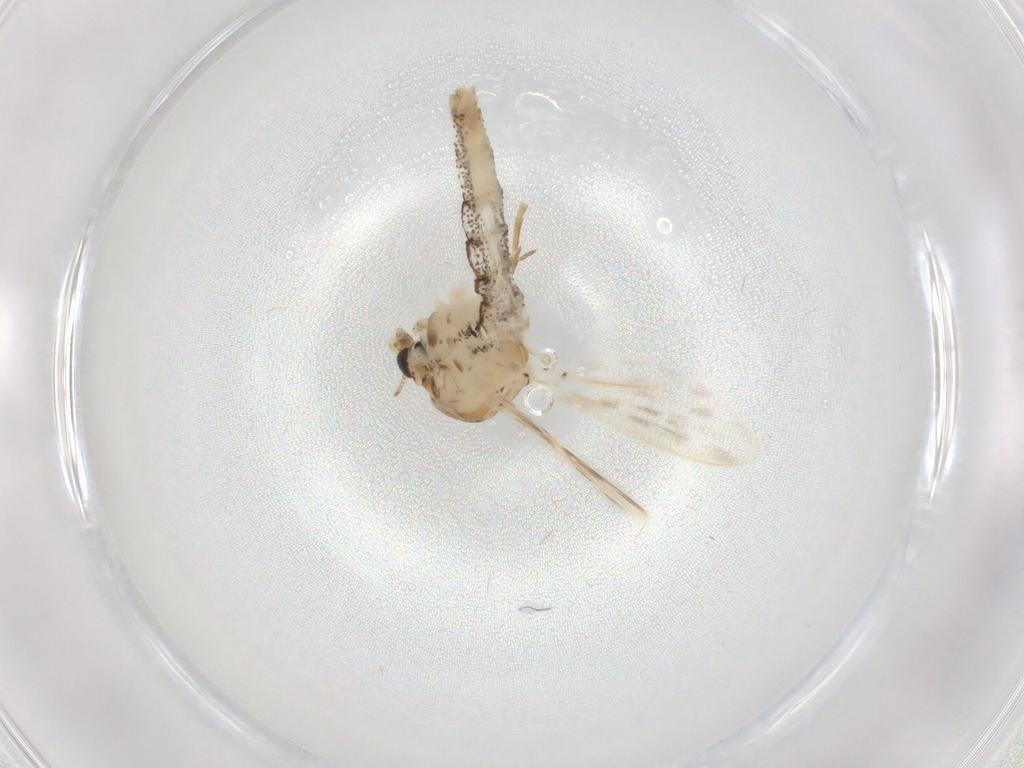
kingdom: Animalia
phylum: Arthropoda
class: Insecta
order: Diptera
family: Chaoboridae
